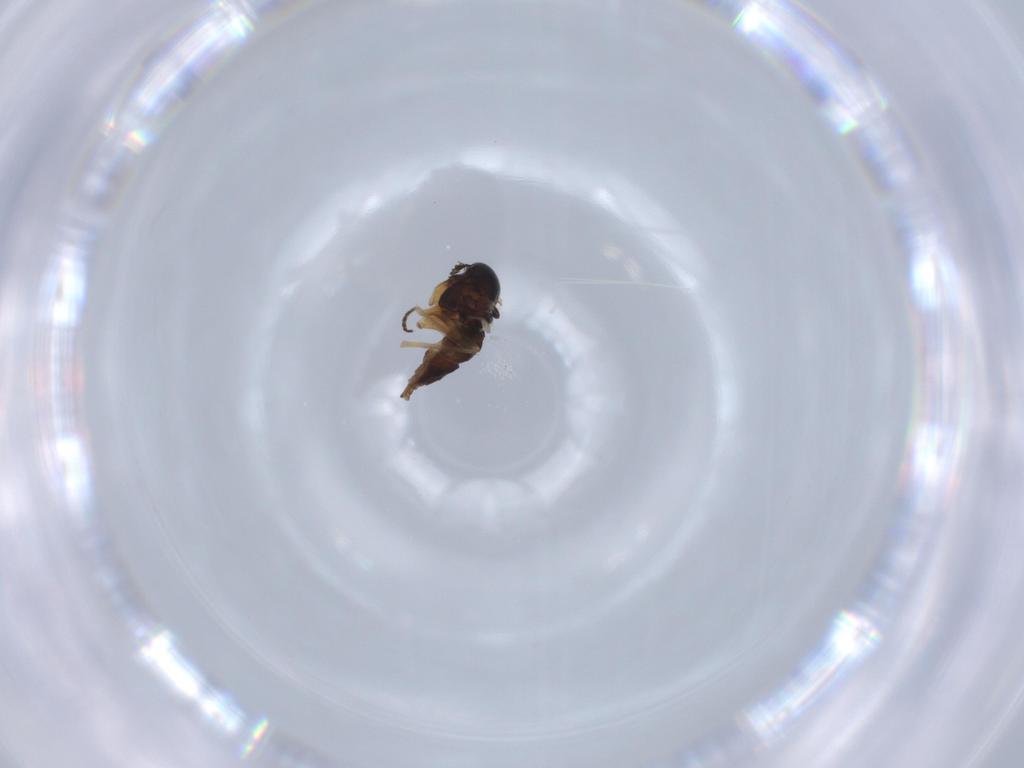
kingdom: Animalia
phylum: Arthropoda
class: Insecta
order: Diptera
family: Sciaridae
